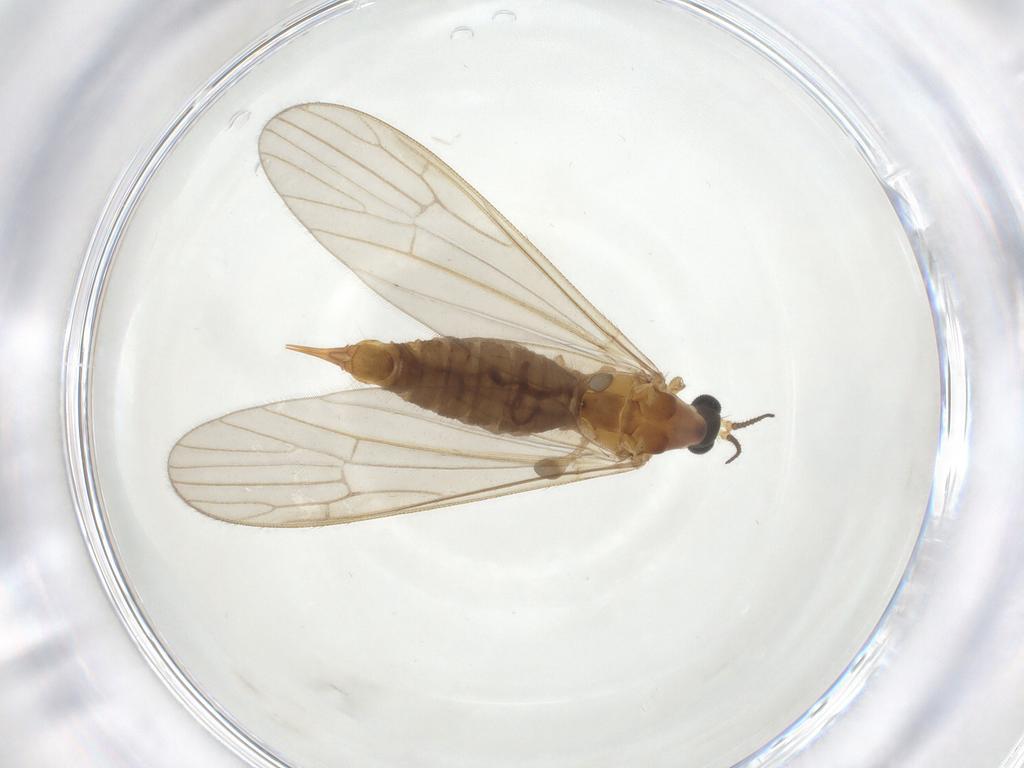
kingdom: Animalia
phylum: Arthropoda
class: Insecta
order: Diptera
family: Limoniidae
